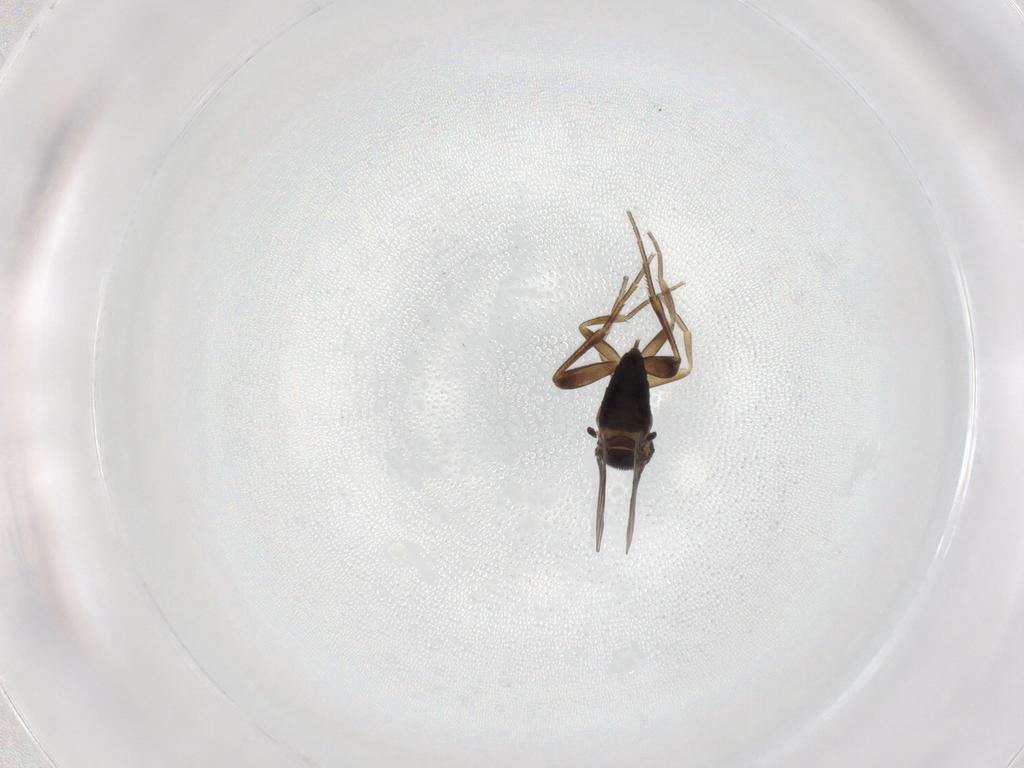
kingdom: Animalia
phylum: Arthropoda
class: Insecta
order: Diptera
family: Phoridae
